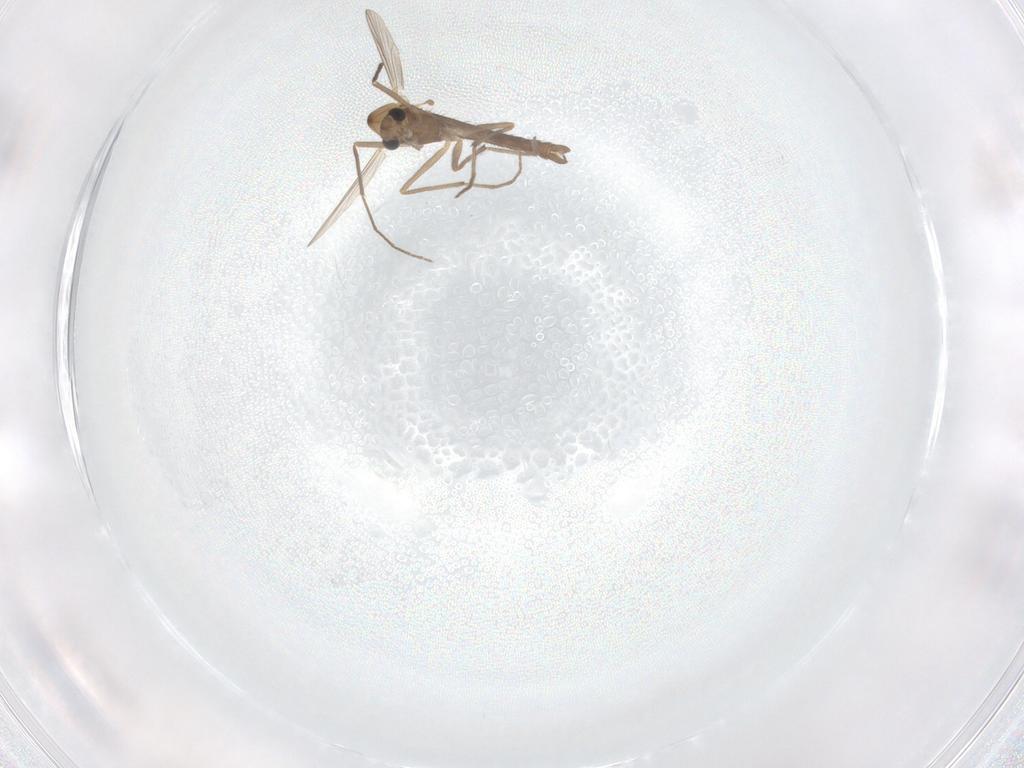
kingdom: Animalia
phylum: Arthropoda
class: Insecta
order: Diptera
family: Chironomidae
